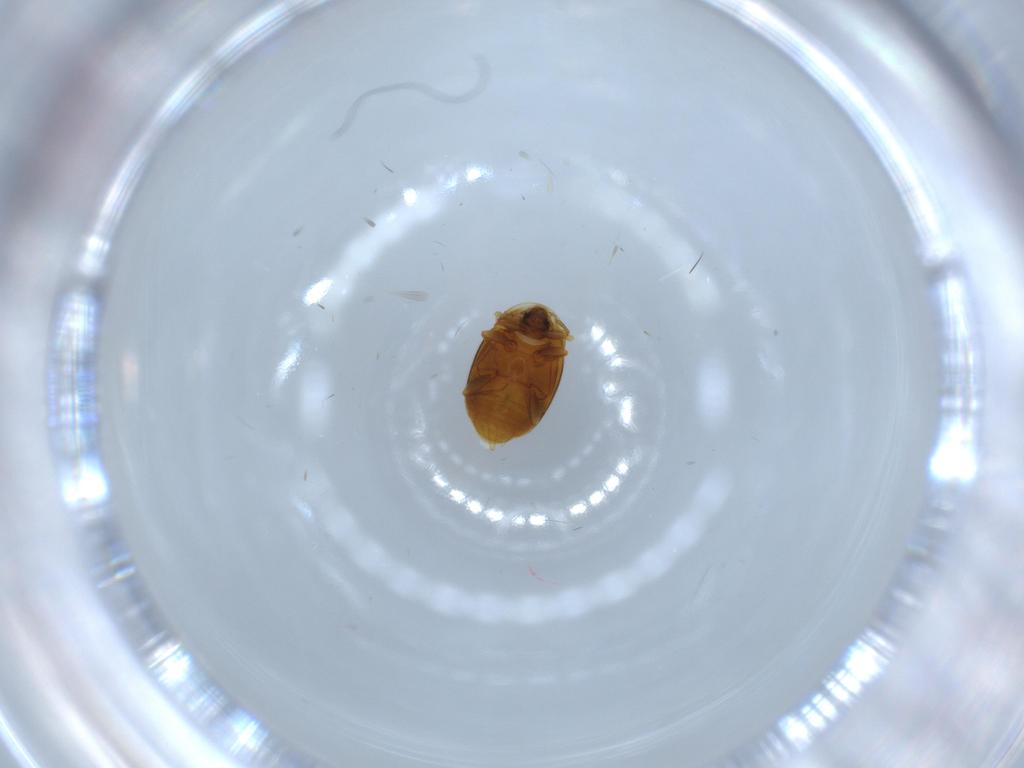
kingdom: Animalia
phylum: Arthropoda
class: Insecta
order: Coleoptera
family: Corylophidae
